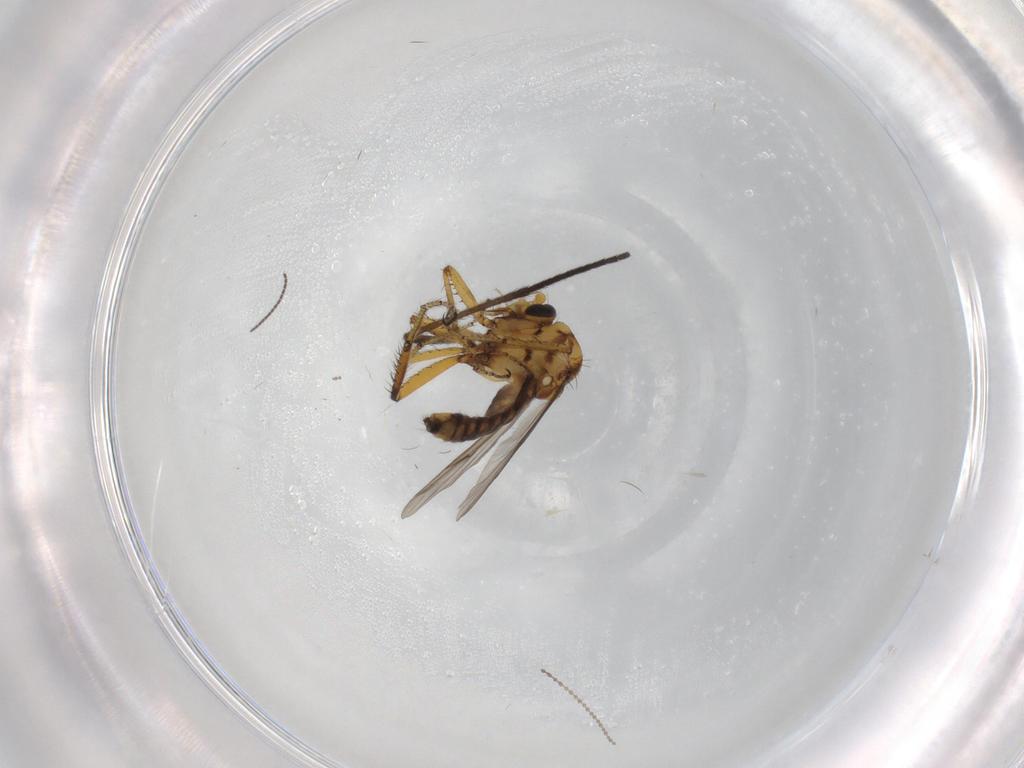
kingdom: Animalia
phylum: Arthropoda
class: Insecta
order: Diptera
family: Ceratopogonidae
